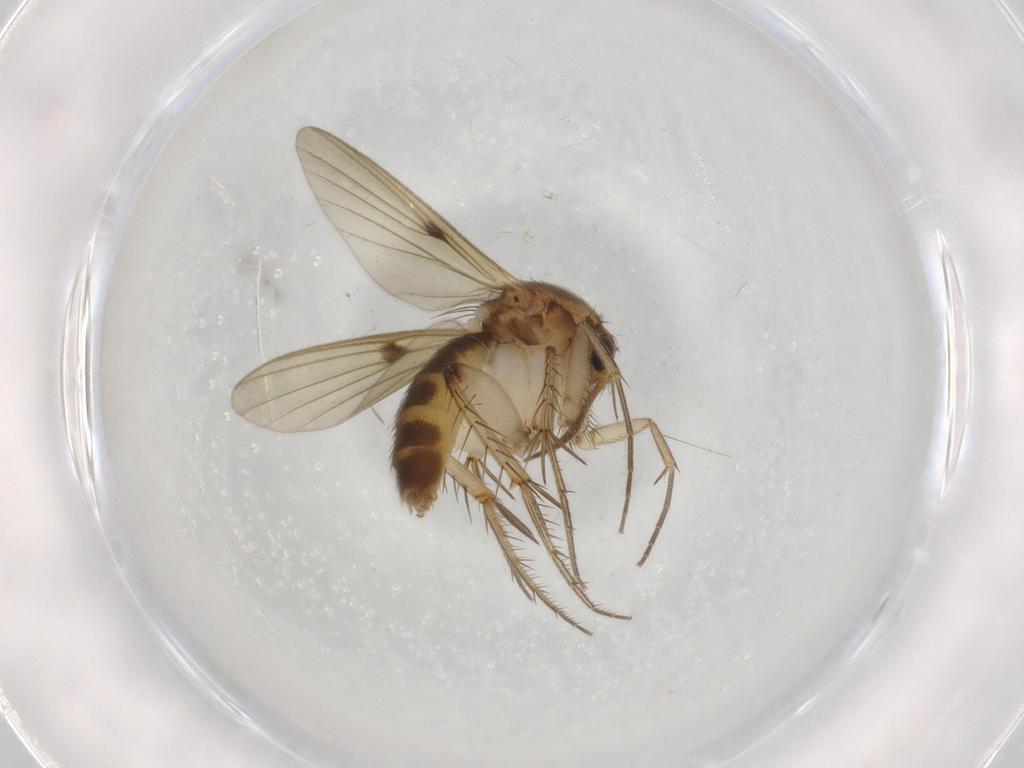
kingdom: Animalia
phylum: Arthropoda
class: Insecta
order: Diptera
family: Mycetophilidae
